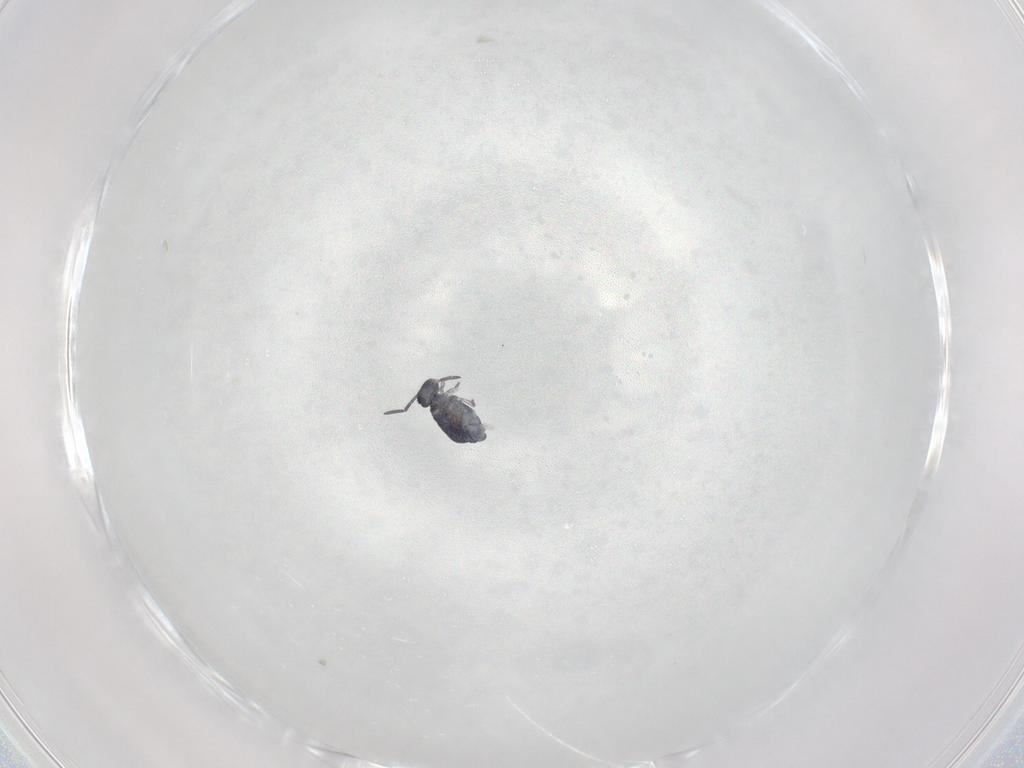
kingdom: Animalia
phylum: Arthropoda
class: Collembola
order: Symphypleona
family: Katiannidae
